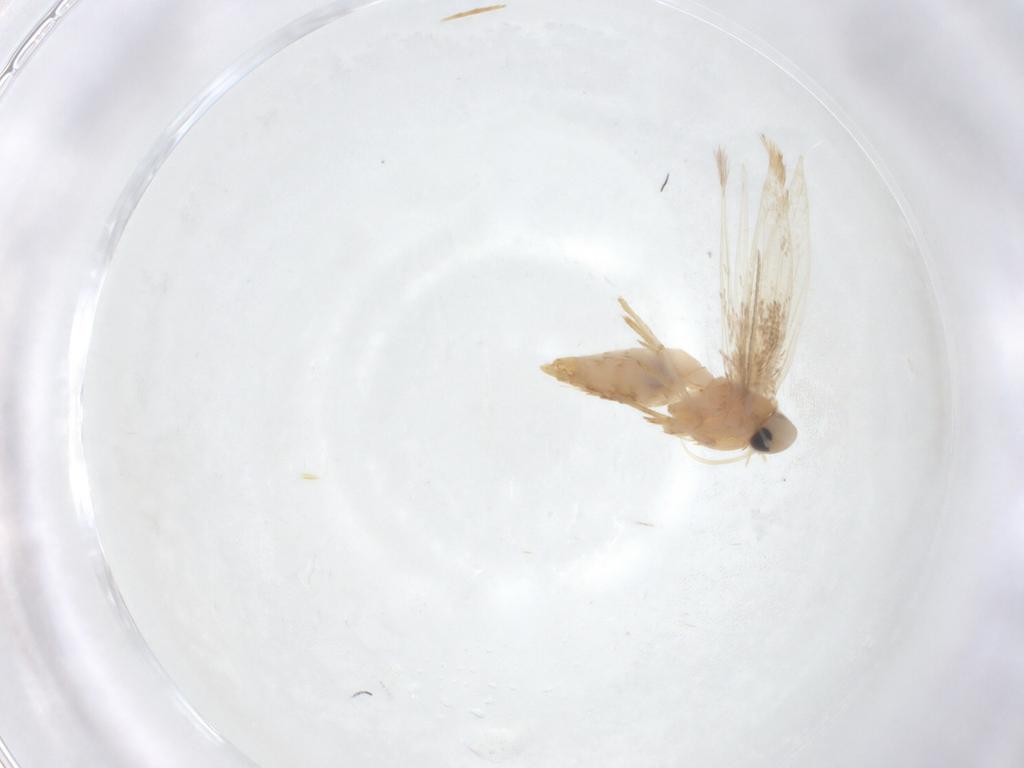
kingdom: Animalia
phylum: Arthropoda
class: Insecta
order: Lepidoptera
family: Tischeriidae
